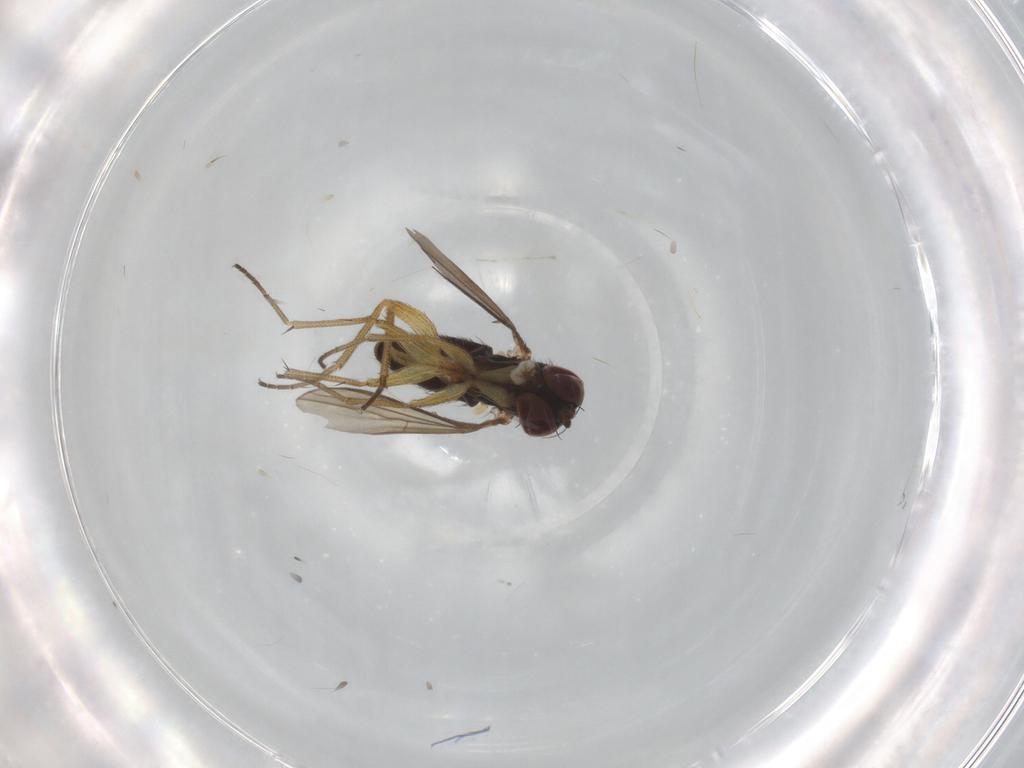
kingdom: Animalia
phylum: Arthropoda
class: Insecta
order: Diptera
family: Dolichopodidae
